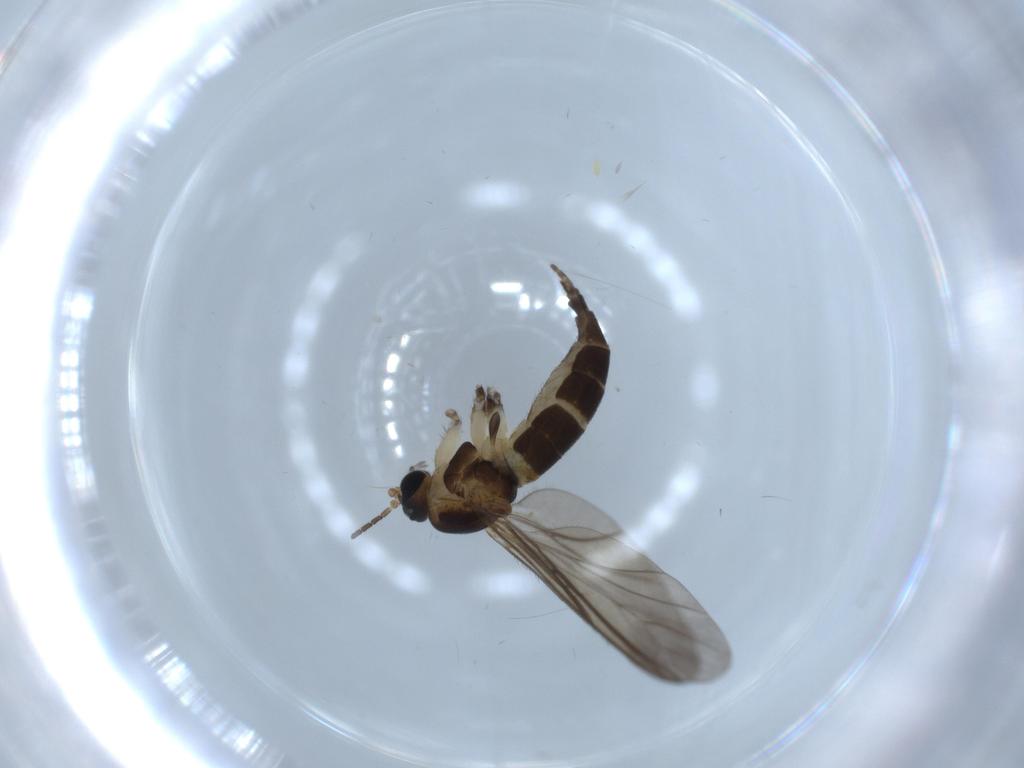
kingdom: Animalia
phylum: Arthropoda
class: Insecta
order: Diptera
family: Sciaridae
